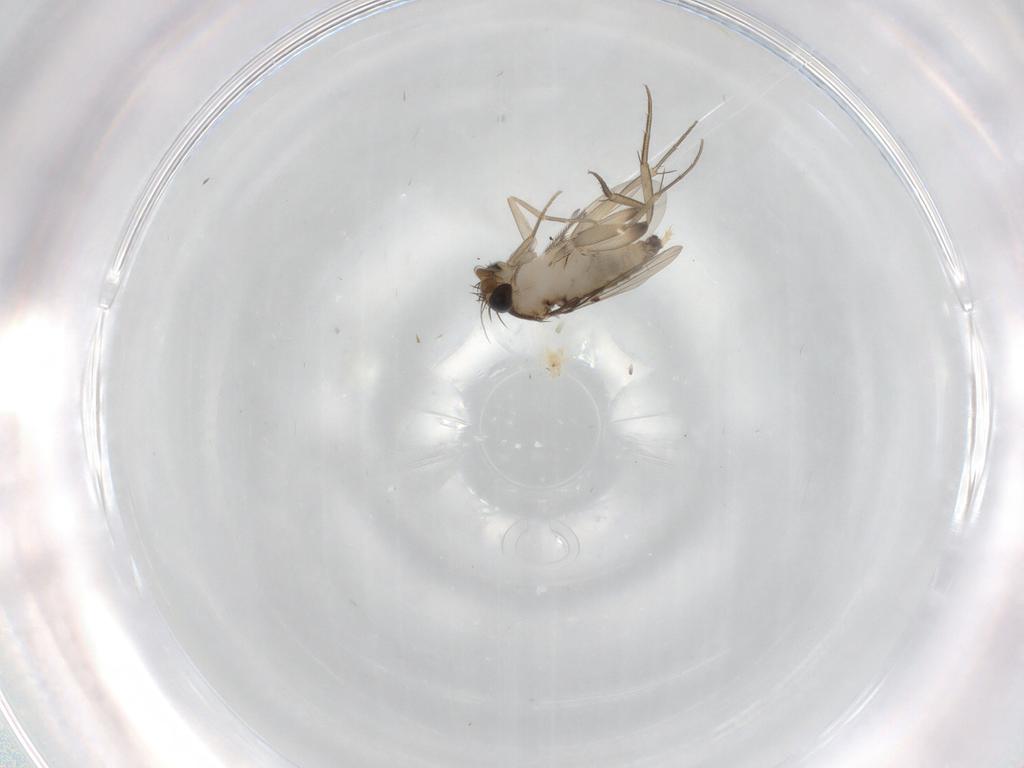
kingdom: Animalia
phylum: Arthropoda
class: Insecta
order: Diptera
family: Phoridae
